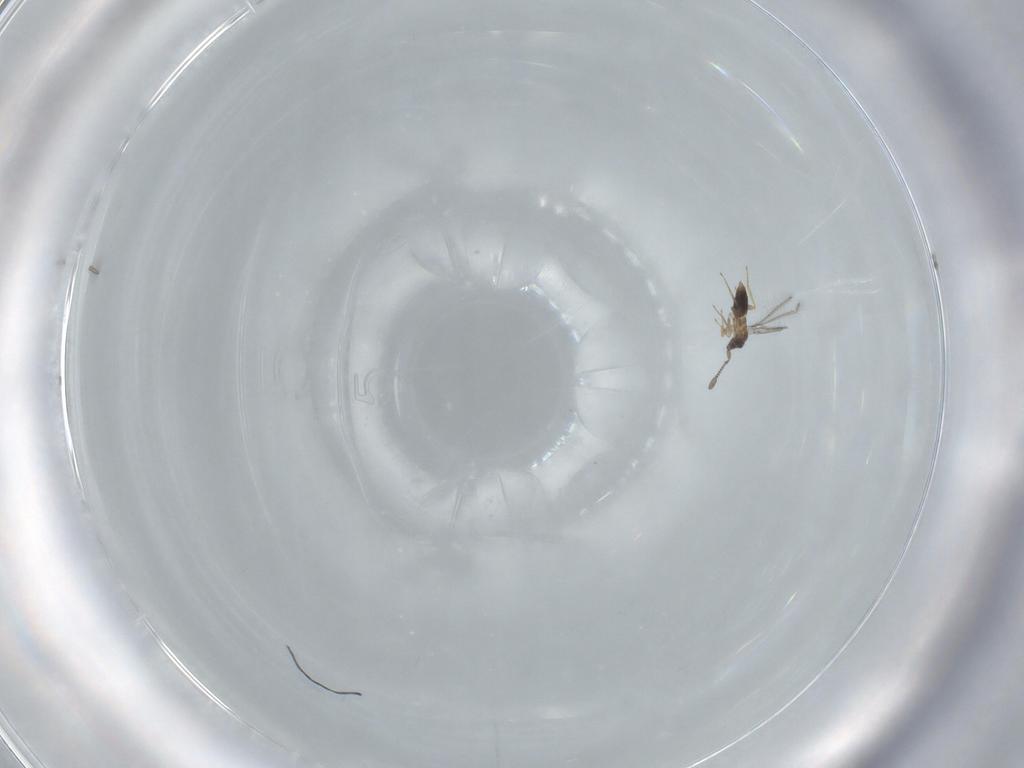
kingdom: Animalia
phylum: Arthropoda
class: Insecta
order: Hymenoptera
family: Mymaridae
